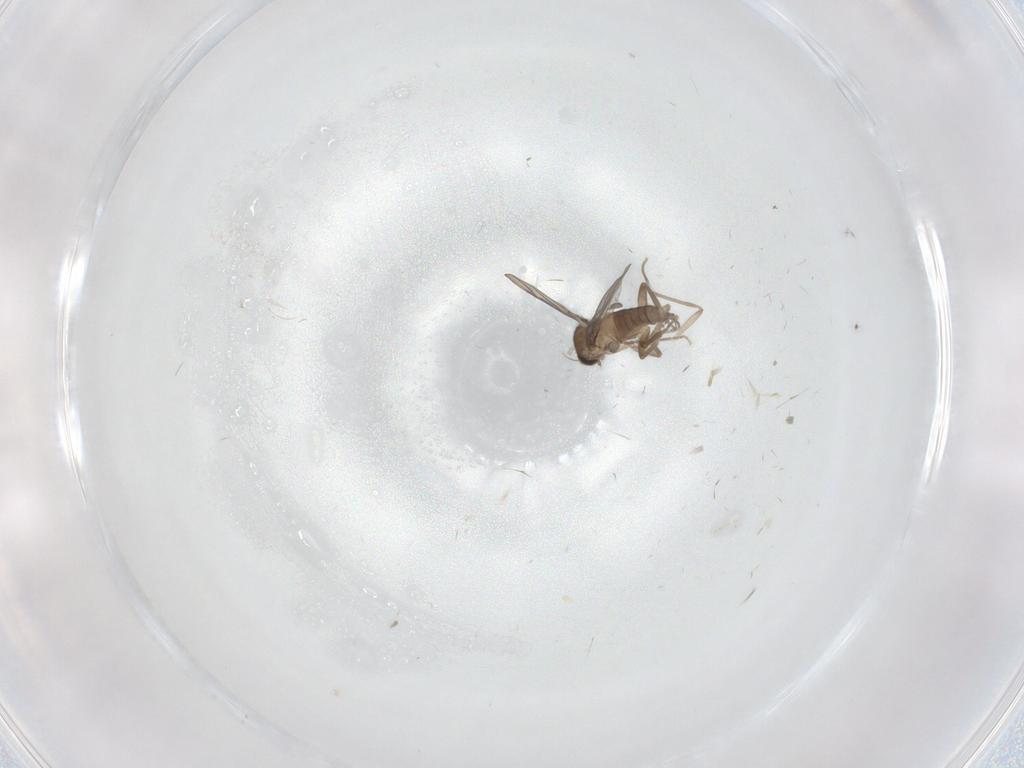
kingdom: Animalia
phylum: Arthropoda
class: Insecta
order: Diptera
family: Cecidomyiidae
